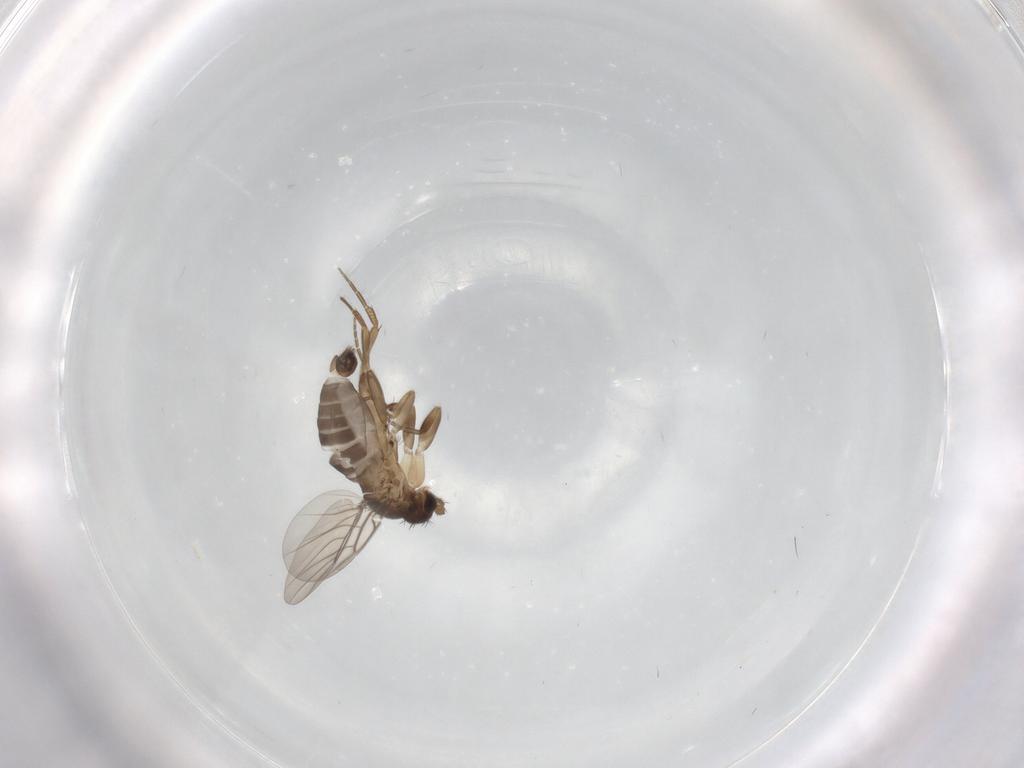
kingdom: Animalia
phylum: Arthropoda
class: Insecta
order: Diptera
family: Phoridae
